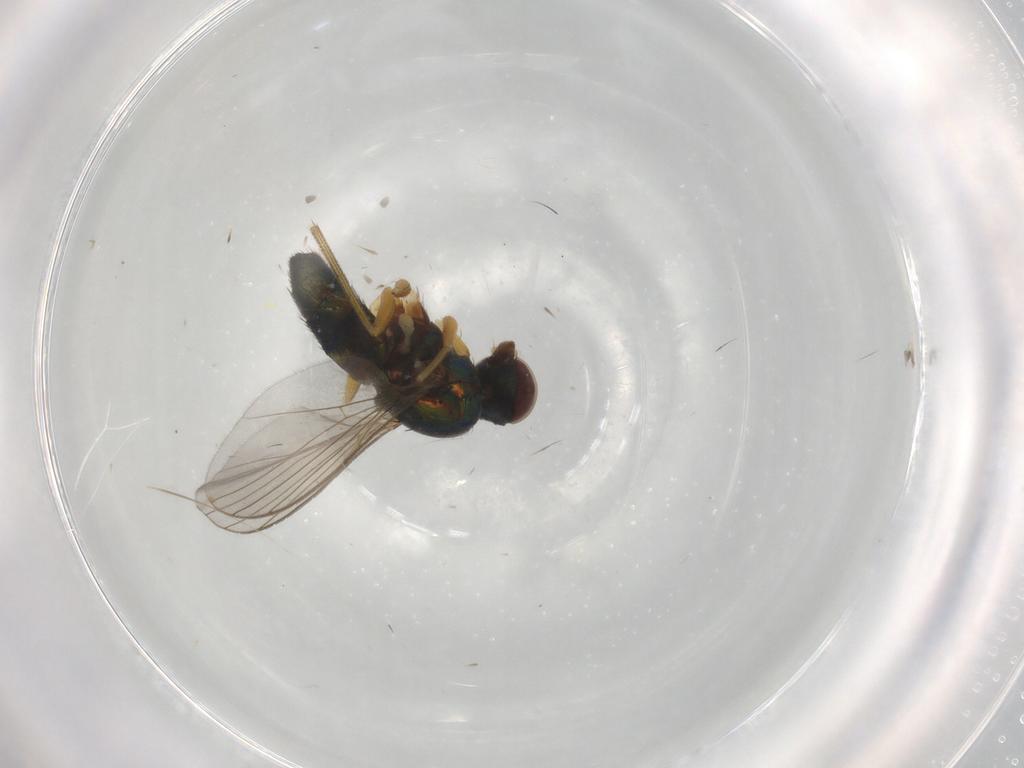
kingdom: Animalia
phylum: Arthropoda
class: Insecta
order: Diptera
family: Dolichopodidae
